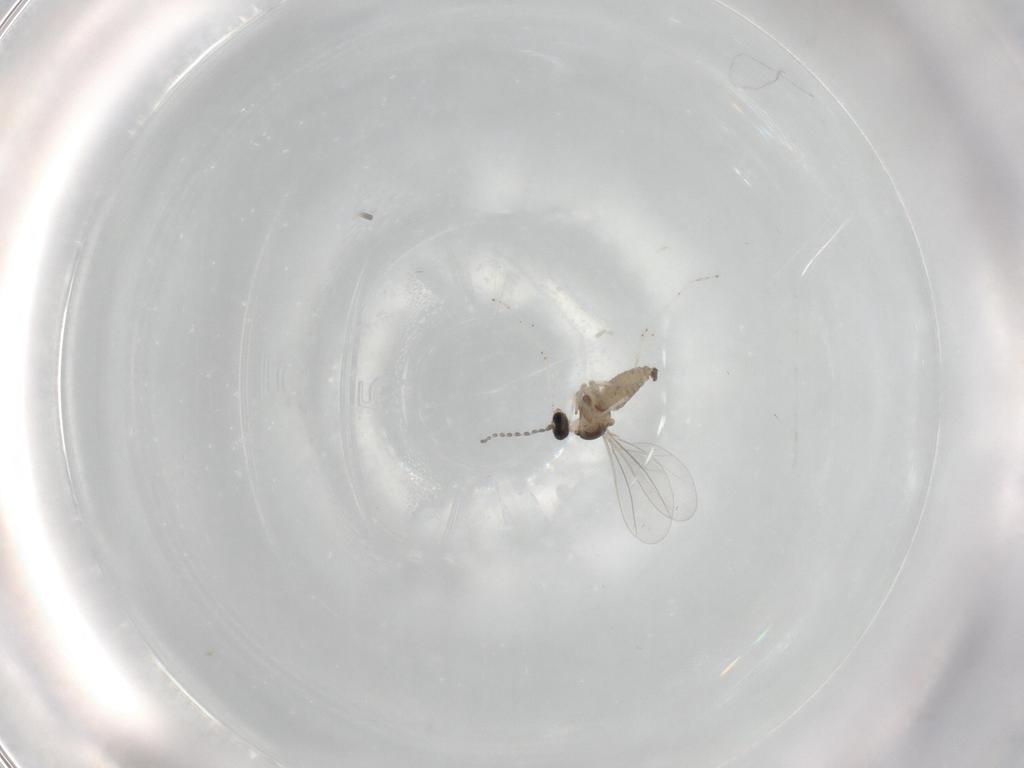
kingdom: Animalia
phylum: Arthropoda
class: Insecta
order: Diptera
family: Cecidomyiidae
